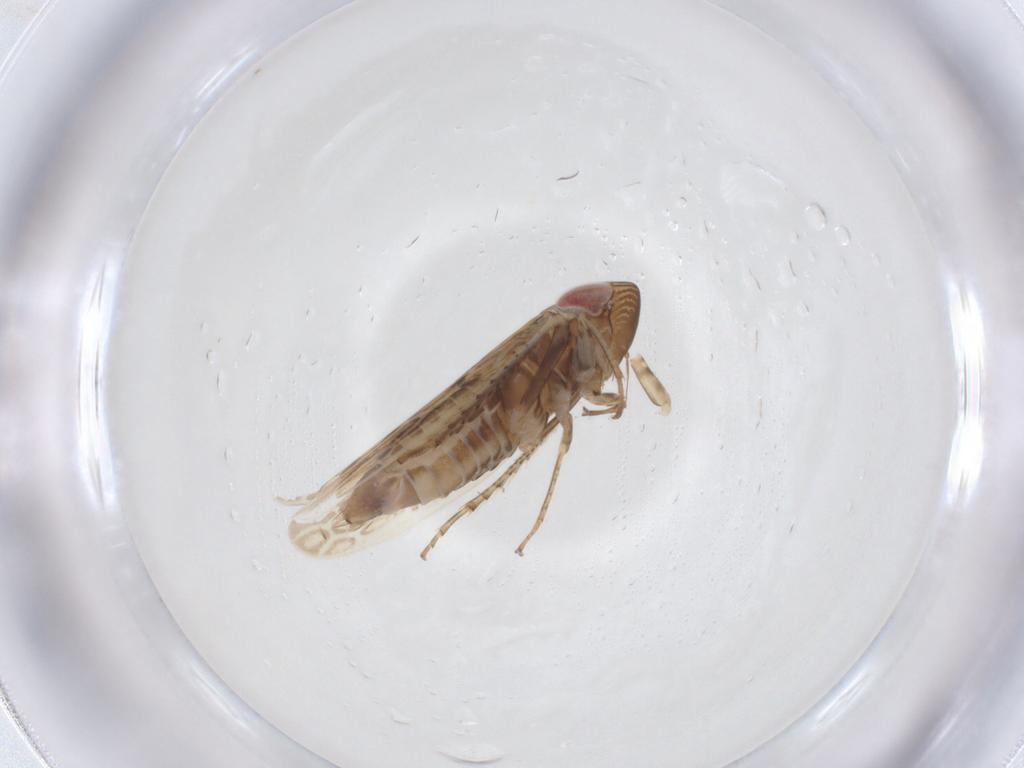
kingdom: Animalia
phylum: Arthropoda
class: Insecta
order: Hemiptera
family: Cicadellidae
